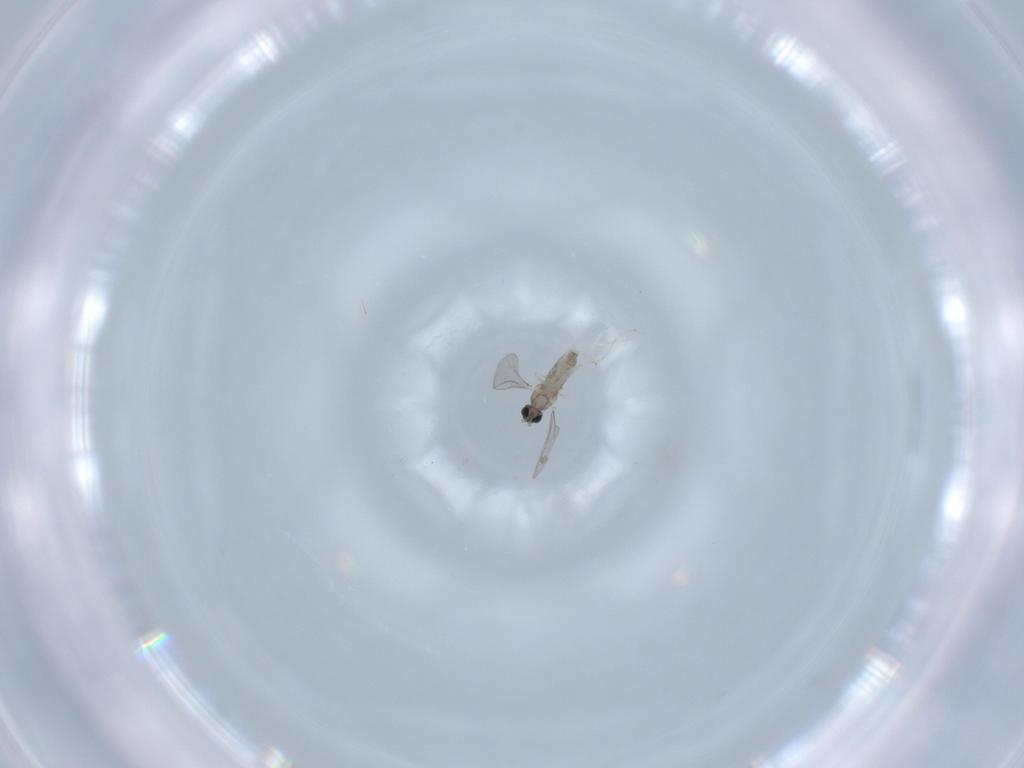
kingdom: Animalia
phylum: Arthropoda
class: Insecta
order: Diptera
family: Cecidomyiidae
